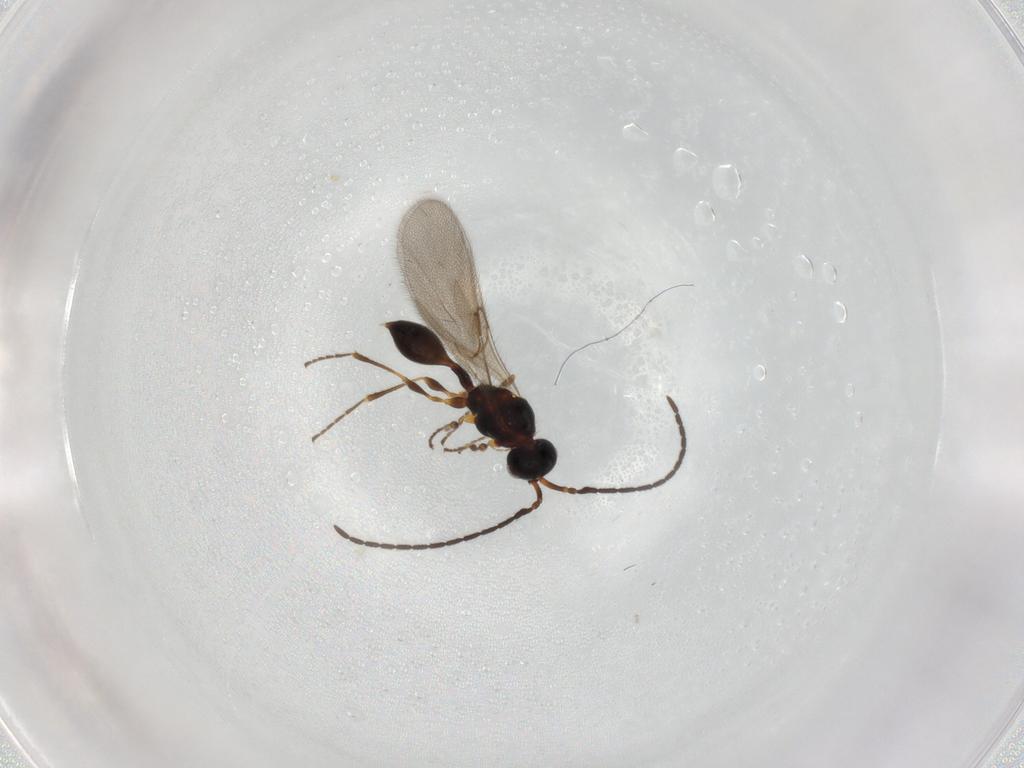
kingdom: Animalia
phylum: Arthropoda
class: Insecta
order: Hymenoptera
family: Diapriidae
